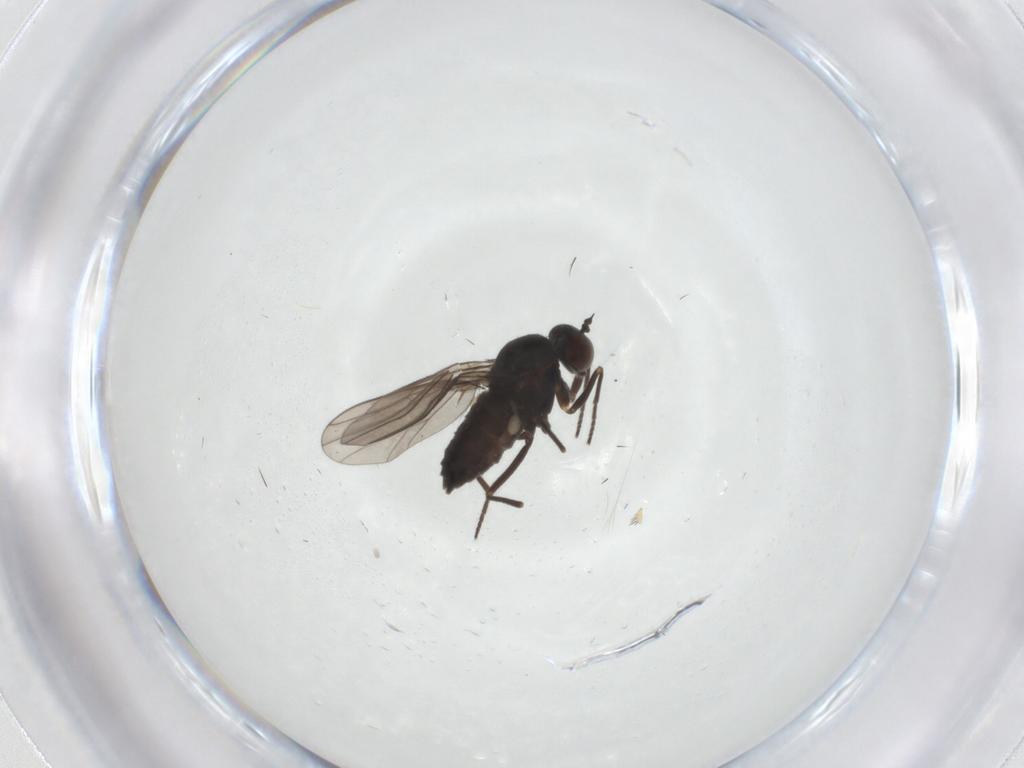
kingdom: Animalia
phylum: Arthropoda
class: Insecta
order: Diptera
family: Dolichopodidae
